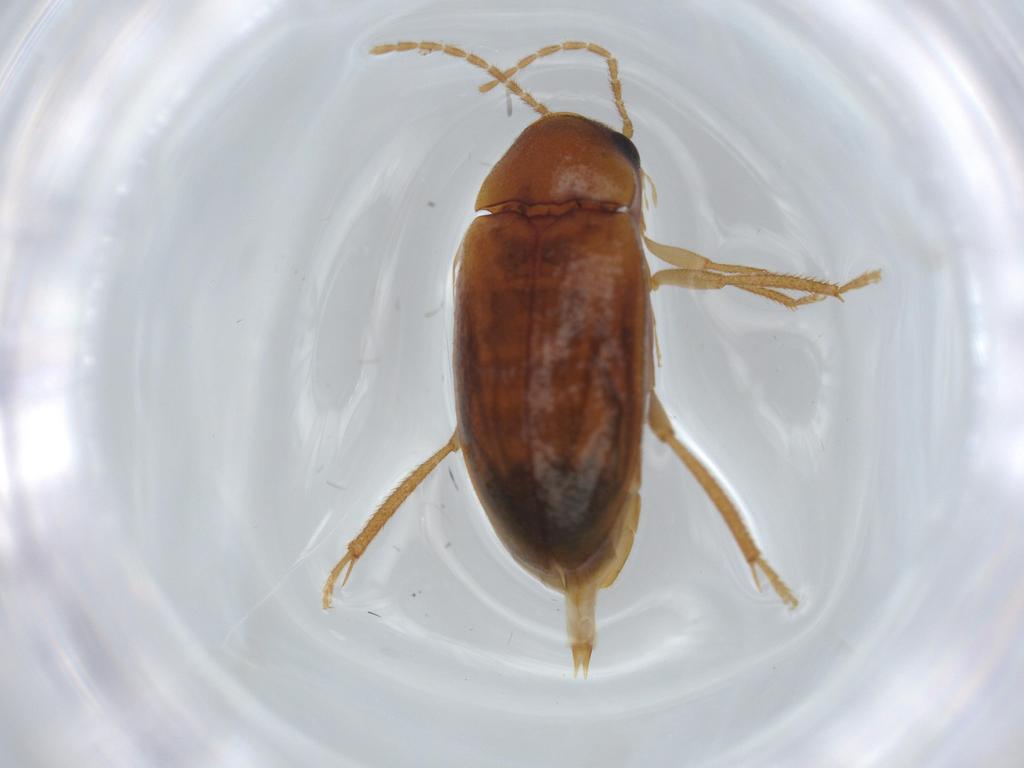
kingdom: Animalia
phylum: Arthropoda
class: Insecta
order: Coleoptera
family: Ptilodactylidae
